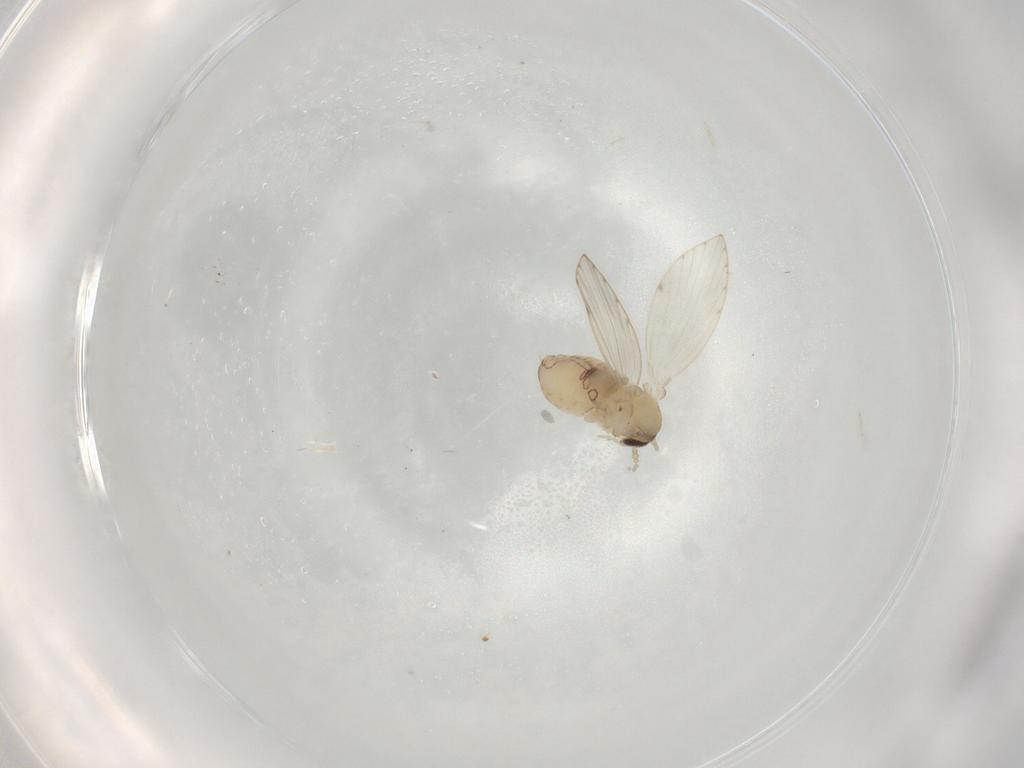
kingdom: Animalia
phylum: Arthropoda
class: Insecta
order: Diptera
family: Psychodidae
